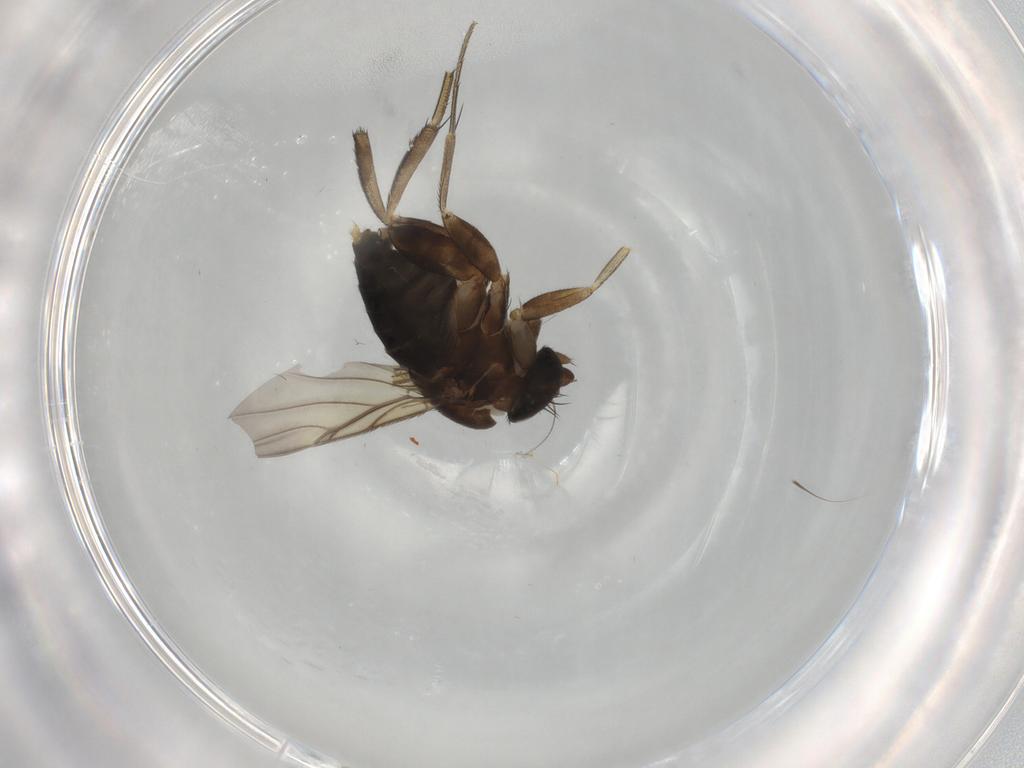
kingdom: Animalia
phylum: Arthropoda
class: Insecta
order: Diptera
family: Phoridae
